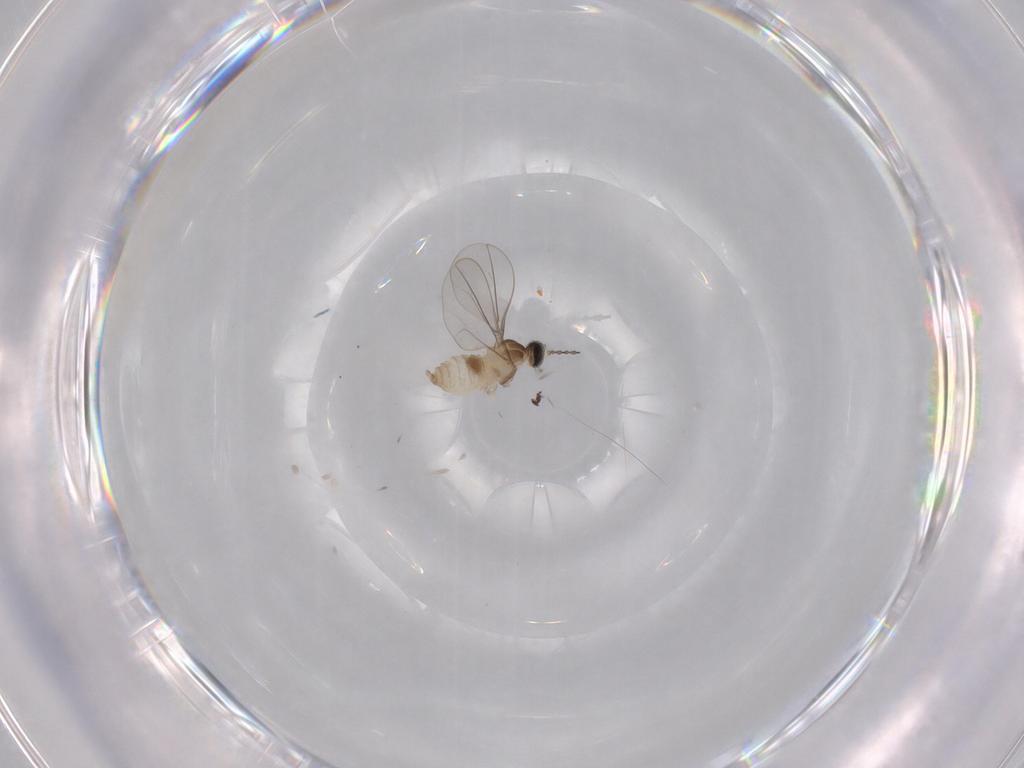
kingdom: Animalia
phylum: Arthropoda
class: Insecta
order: Diptera
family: Cecidomyiidae
